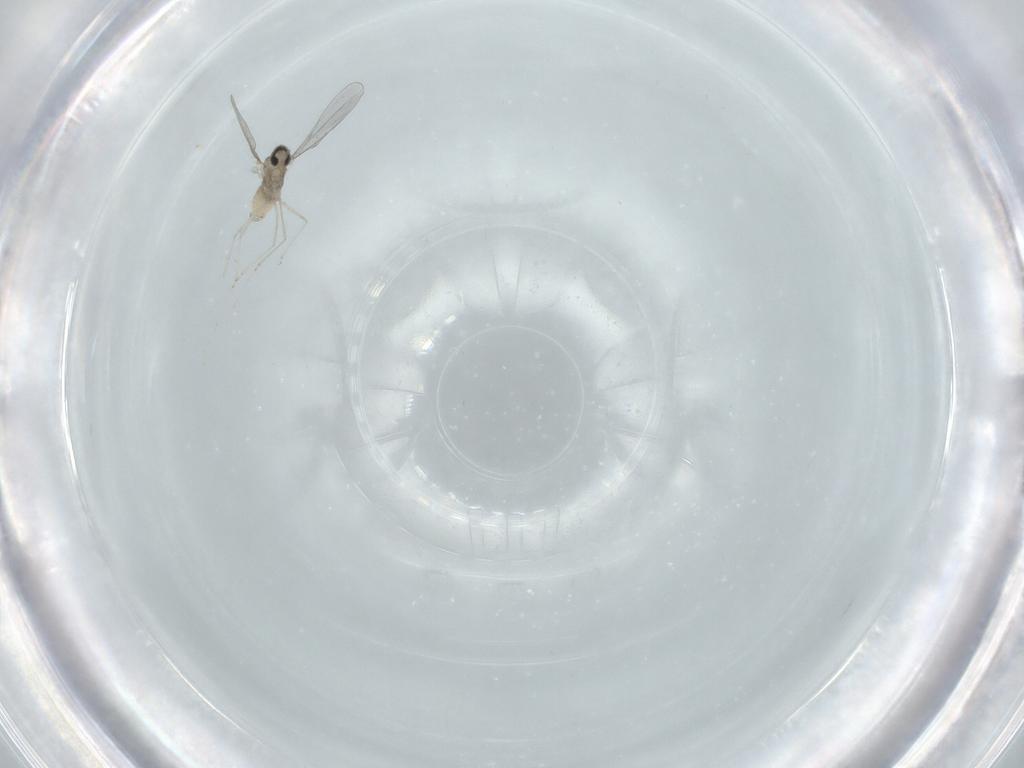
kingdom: Animalia
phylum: Arthropoda
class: Insecta
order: Diptera
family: Cecidomyiidae
